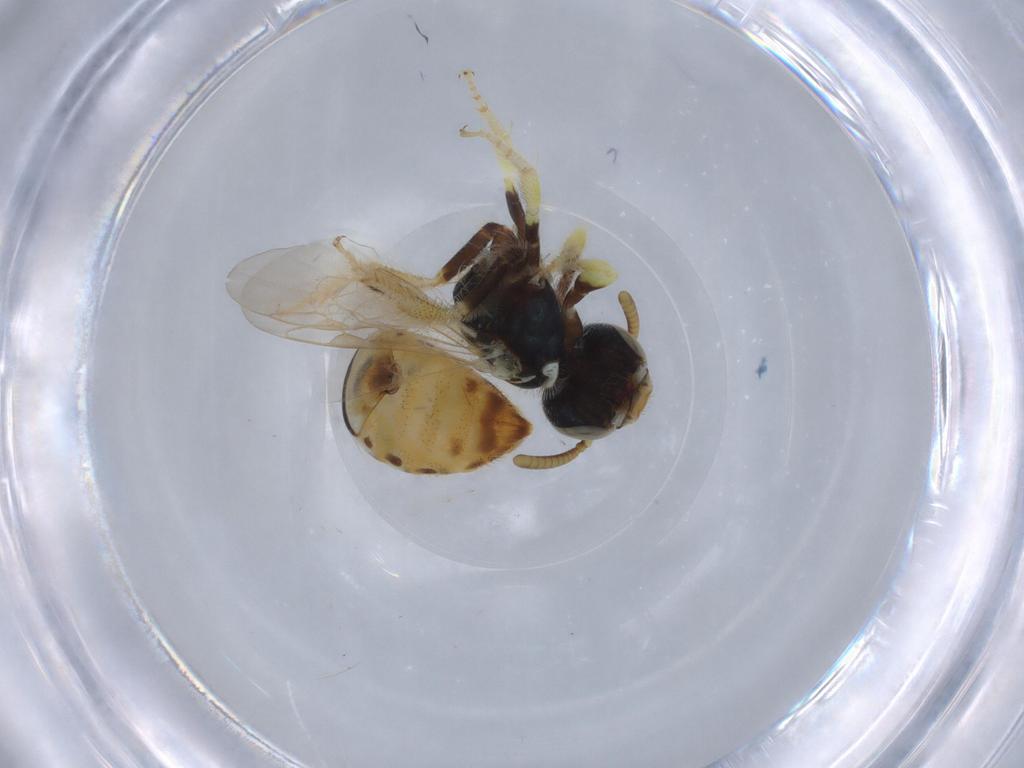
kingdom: Animalia
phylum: Arthropoda
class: Insecta
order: Hymenoptera
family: Halictidae
